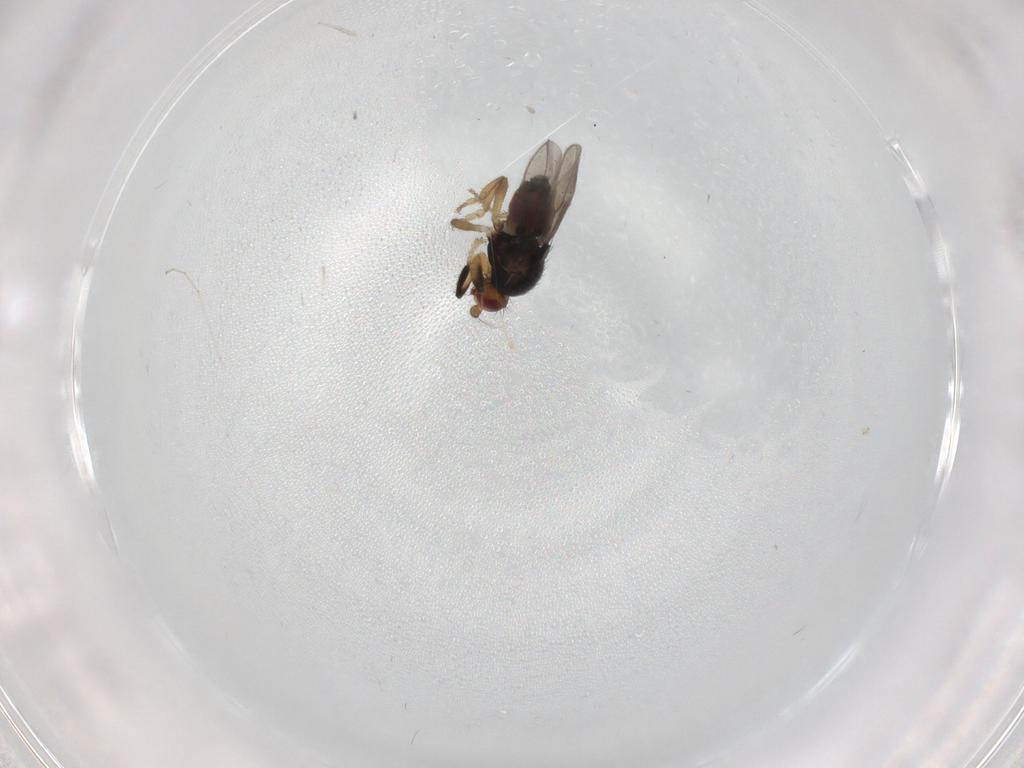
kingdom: Animalia
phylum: Arthropoda
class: Insecta
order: Diptera
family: Sphaeroceridae
